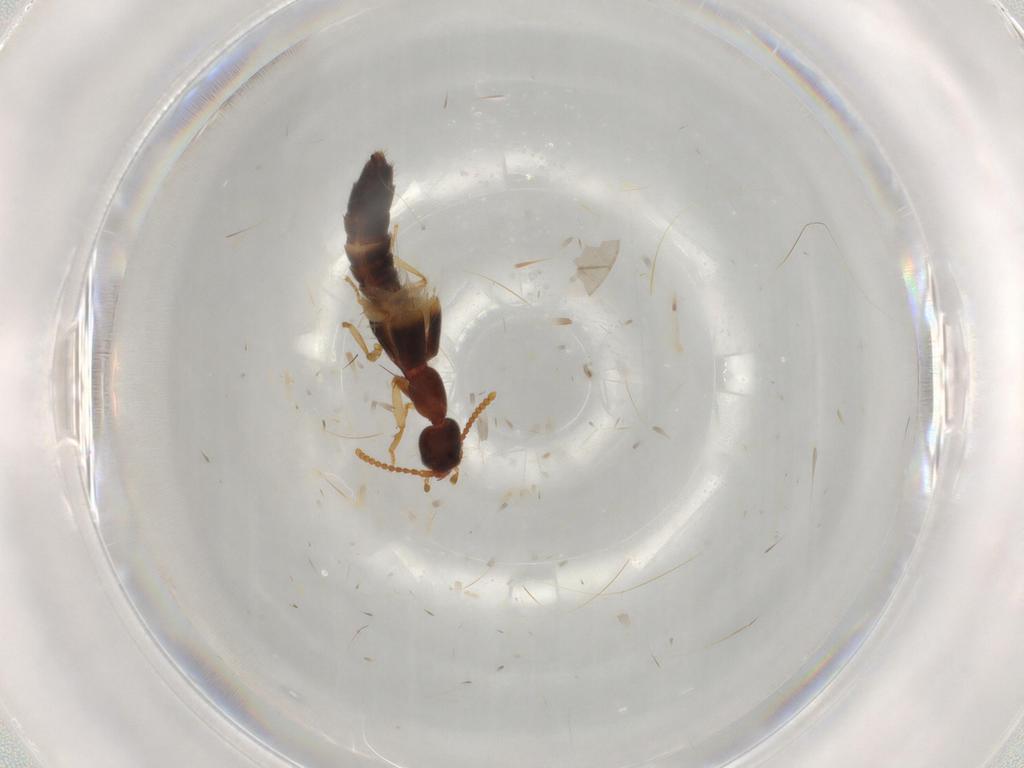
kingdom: Animalia
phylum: Arthropoda
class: Insecta
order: Coleoptera
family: Staphylinidae
